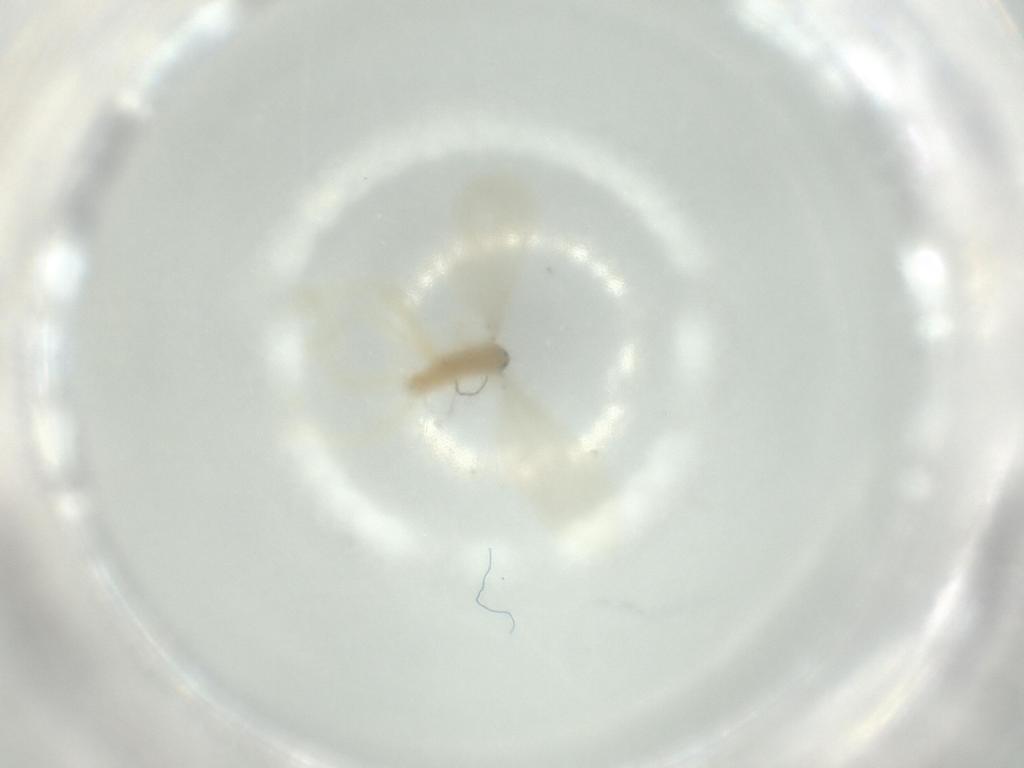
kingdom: Animalia
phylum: Arthropoda
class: Insecta
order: Diptera
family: Cecidomyiidae
